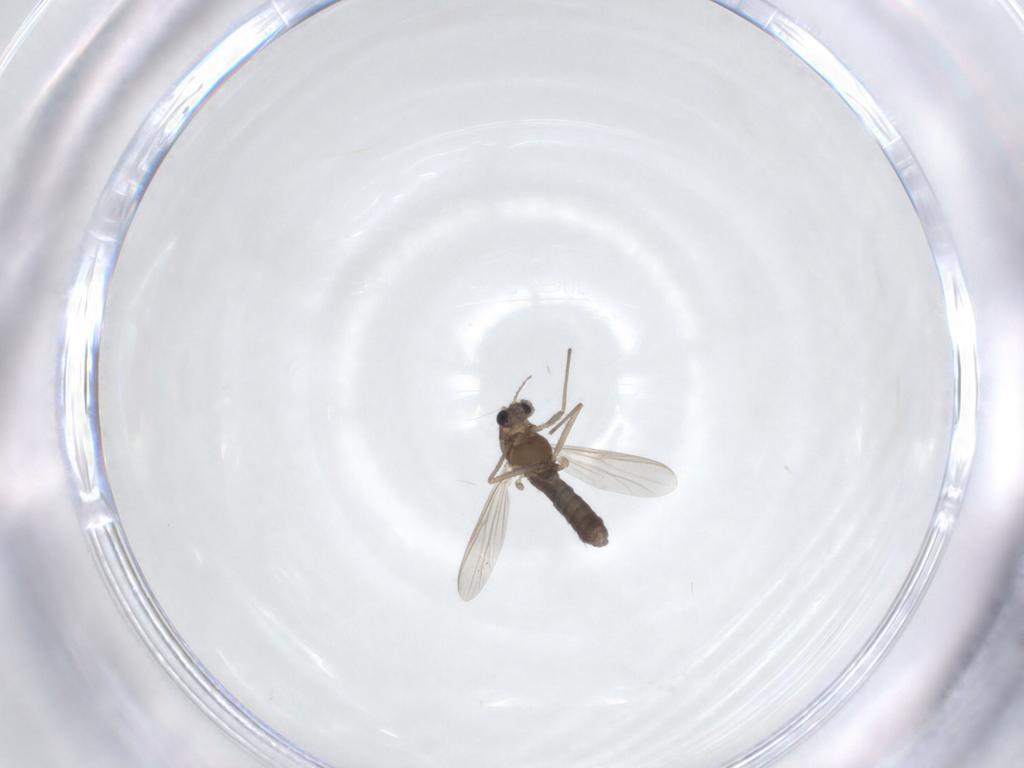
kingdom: Animalia
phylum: Arthropoda
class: Insecta
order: Diptera
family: Chironomidae
